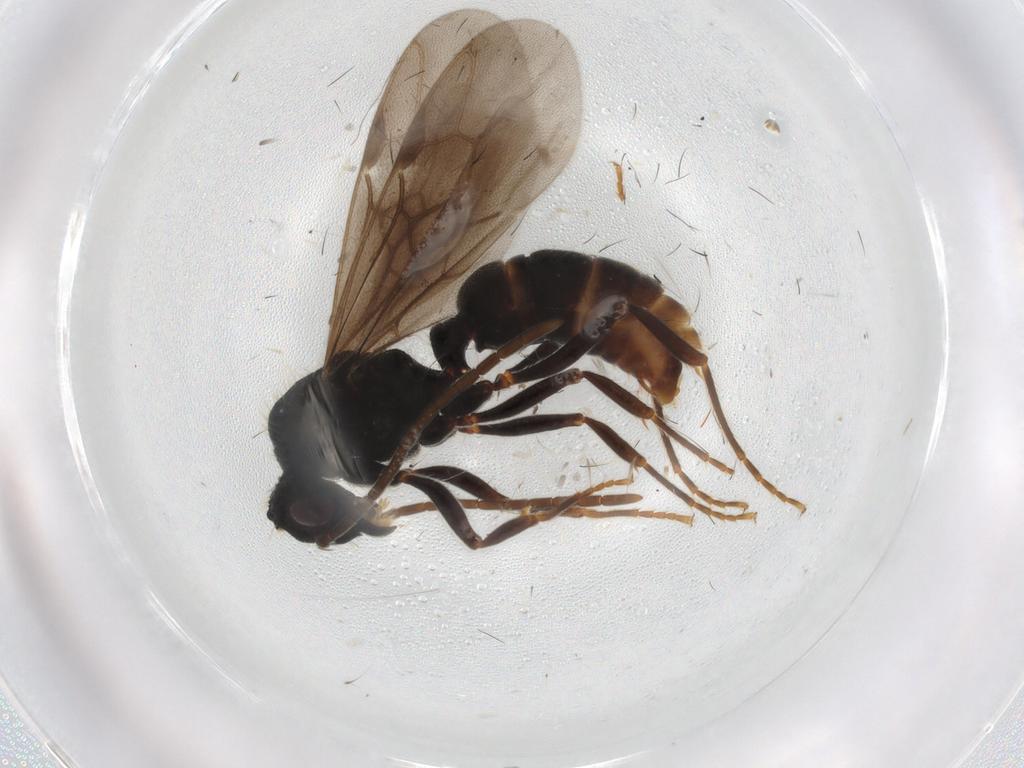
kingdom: Animalia
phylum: Arthropoda
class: Insecta
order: Hymenoptera
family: Formicidae
